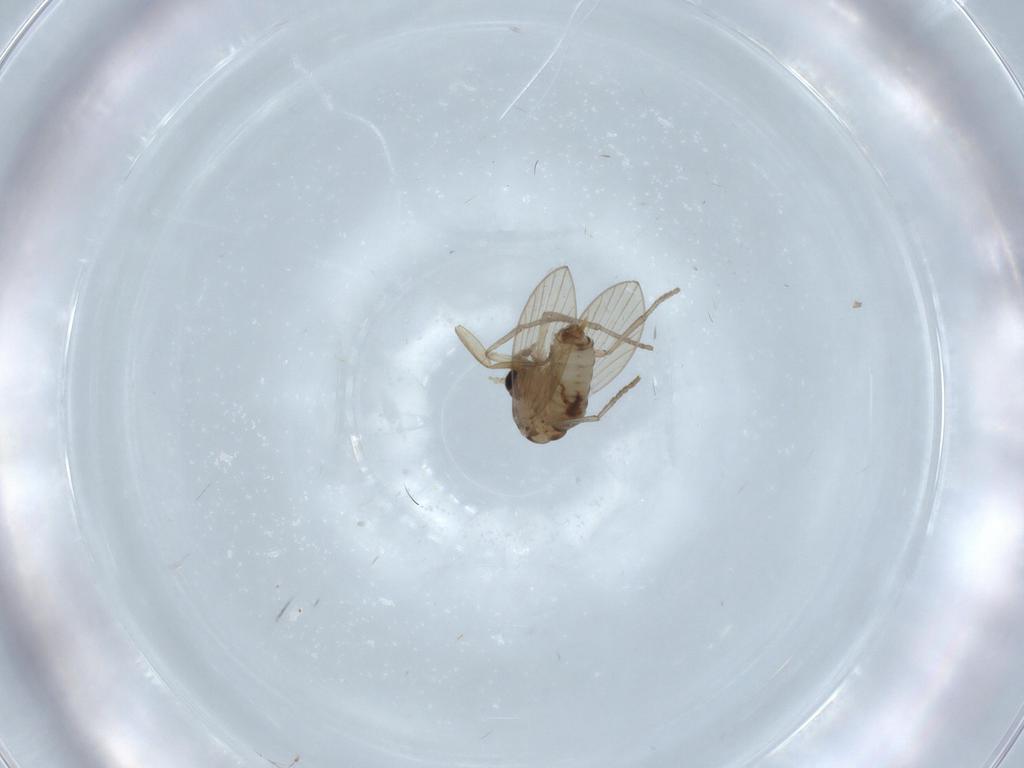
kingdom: Animalia
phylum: Arthropoda
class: Insecta
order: Diptera
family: Psychodidae
